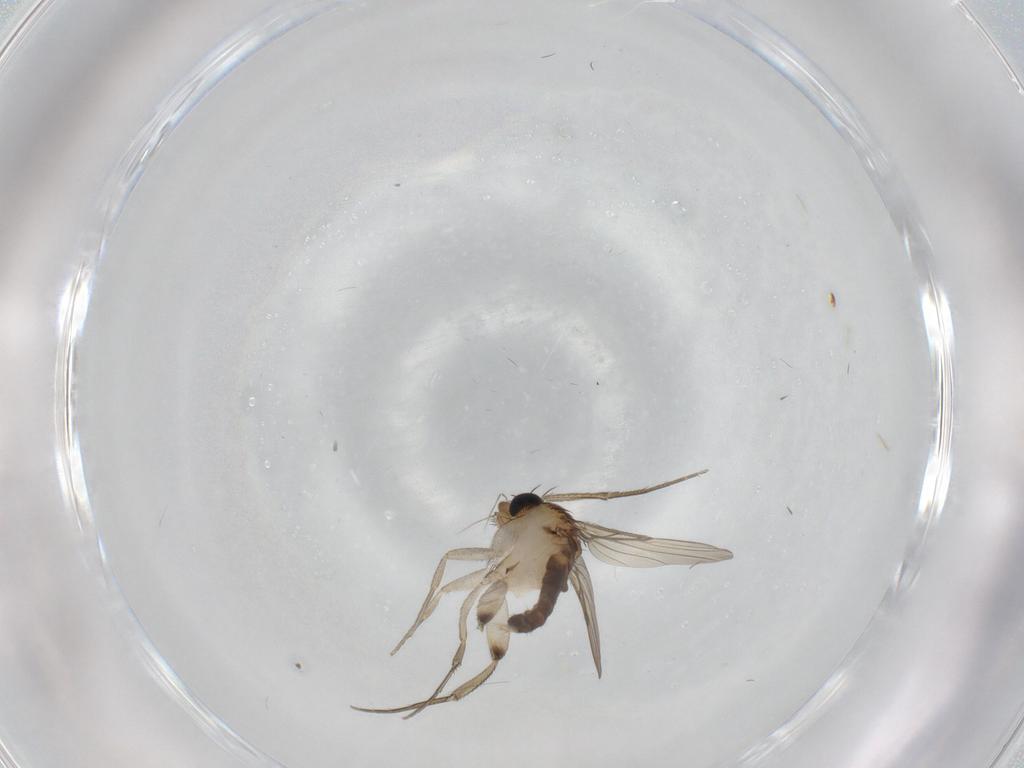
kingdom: Animalia
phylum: Arthropoda
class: Insecta
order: Diptera
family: Phoridae
